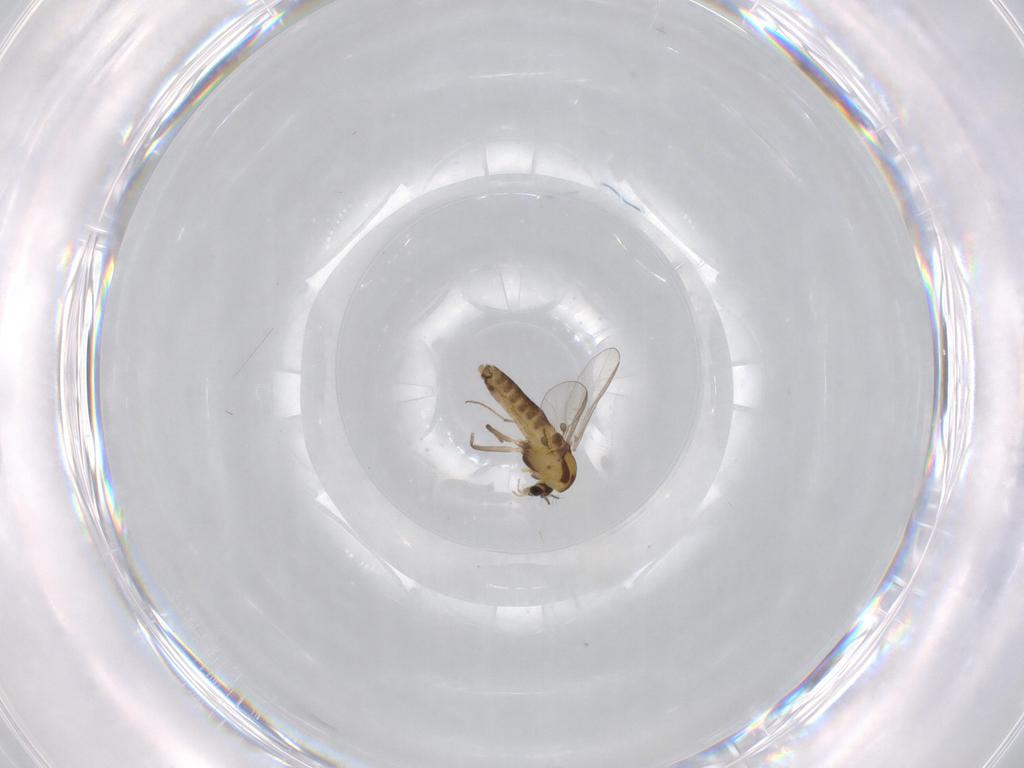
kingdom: Animalia
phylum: Arthropoda
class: Insecta
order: Diptera
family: Chironomidae
